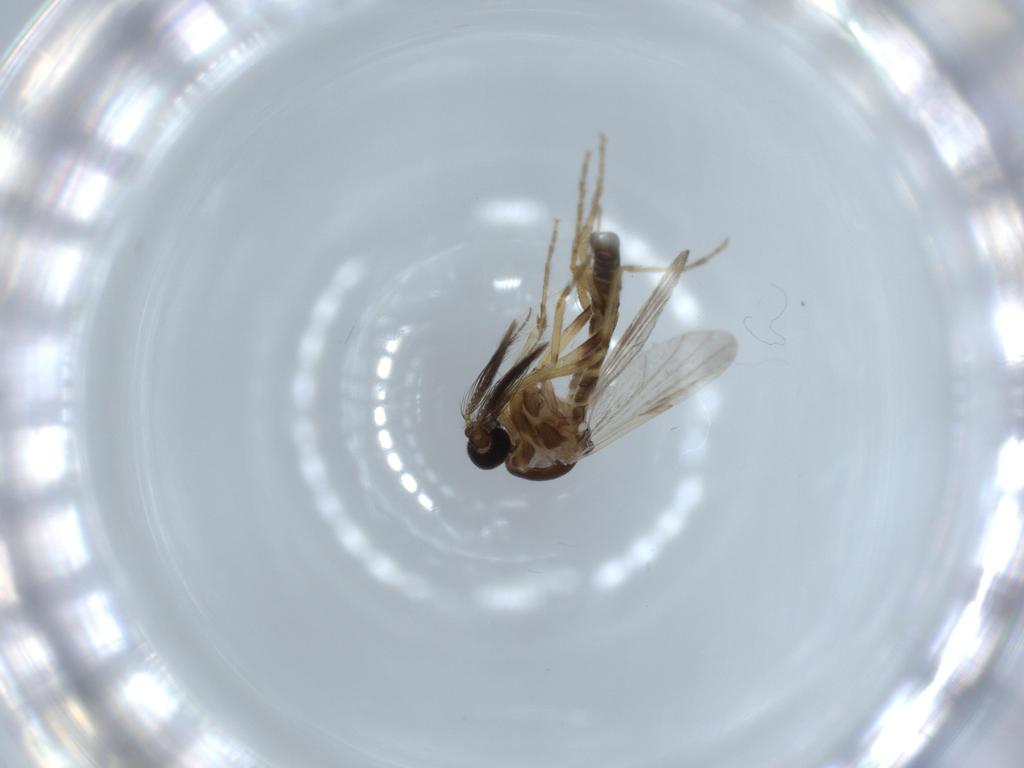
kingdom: Animalia
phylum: Arthropoda
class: Insecta
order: Diptera
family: Ceratopogonidae
